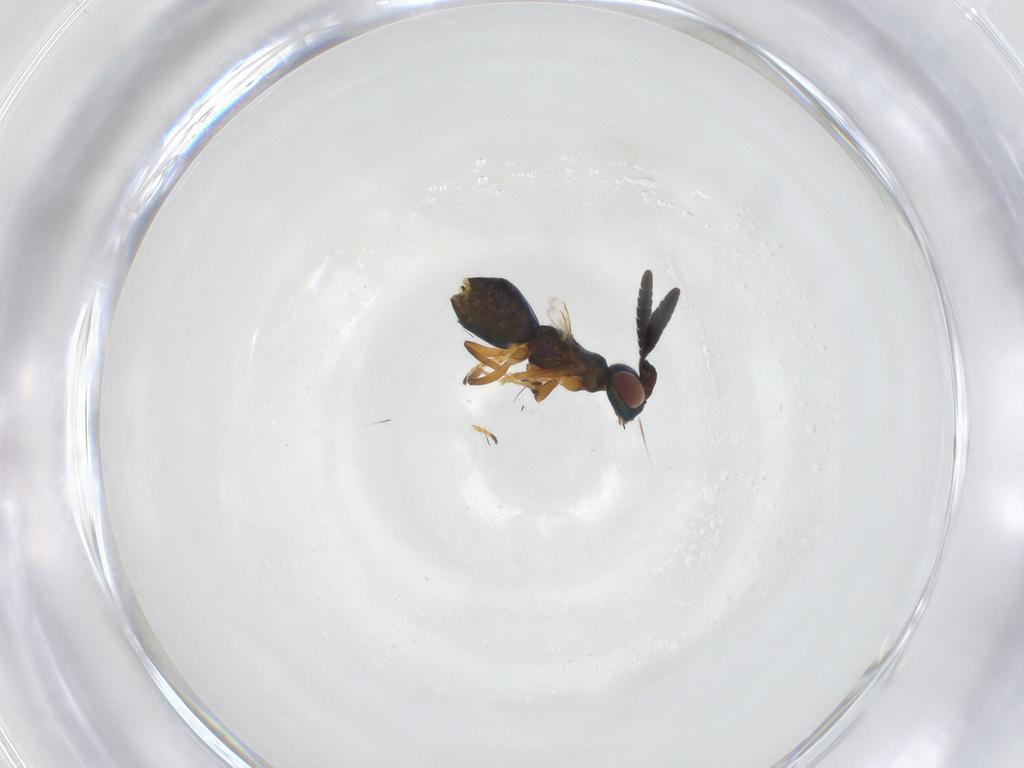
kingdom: Animalia
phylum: Arthropoda
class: Insecta
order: Hymenoptera
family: Encyrtidae
